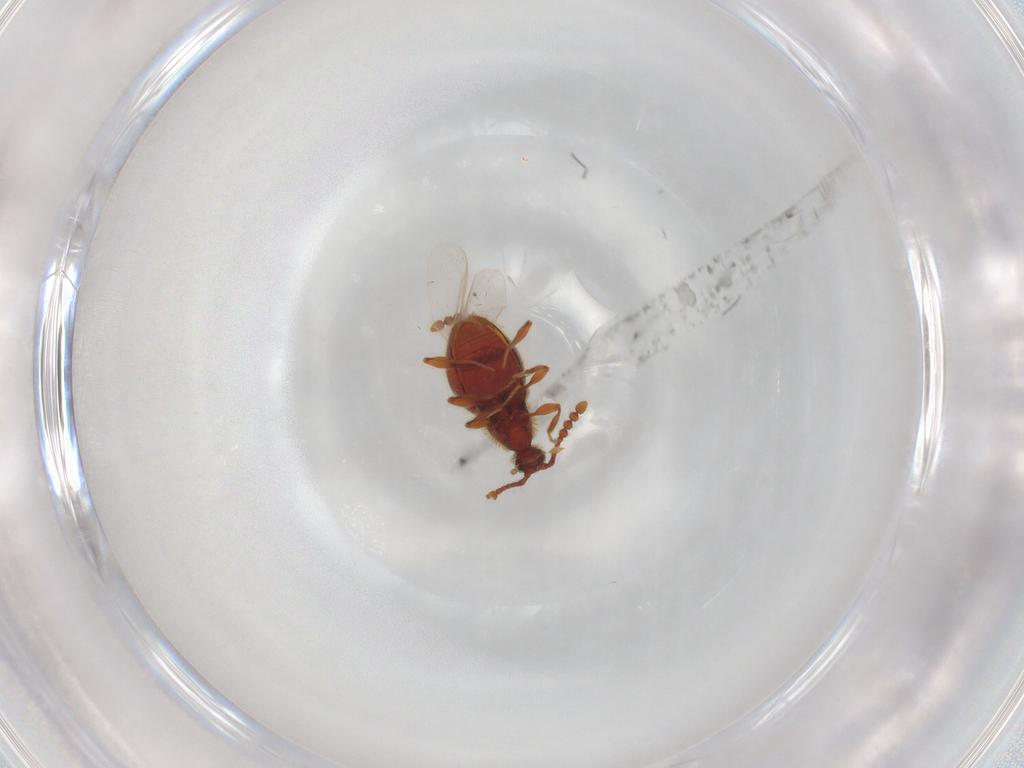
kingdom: Animalia
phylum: Arthropoda
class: Insecta
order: Coleoptera
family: Staphylinidae
